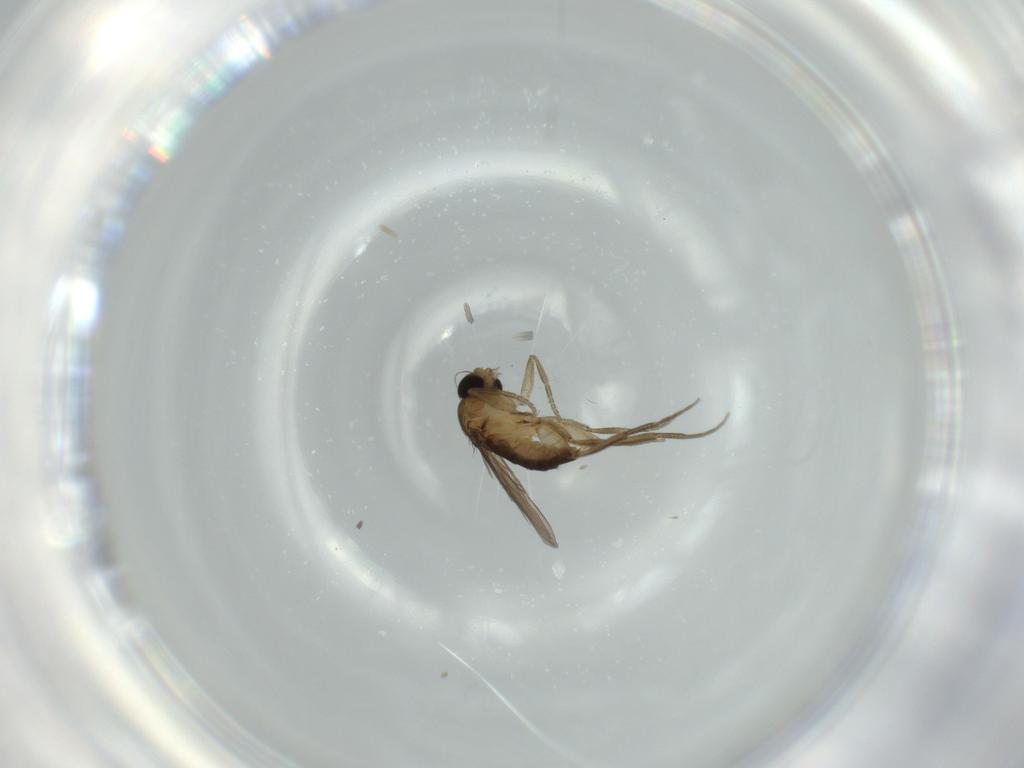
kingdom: Animalia
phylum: Arthropoda
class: Insecta
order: Diptera
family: Phoridae
